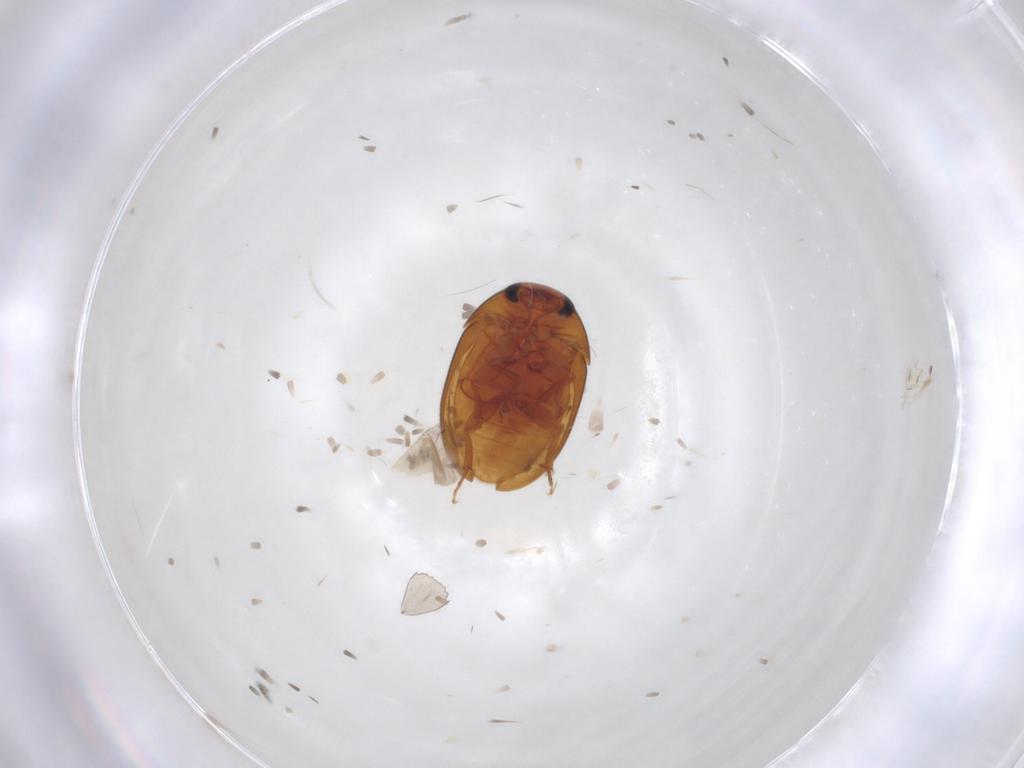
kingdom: Animalia
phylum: Arthropoda
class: Insecta
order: Coleoptera
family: Phalacridae
